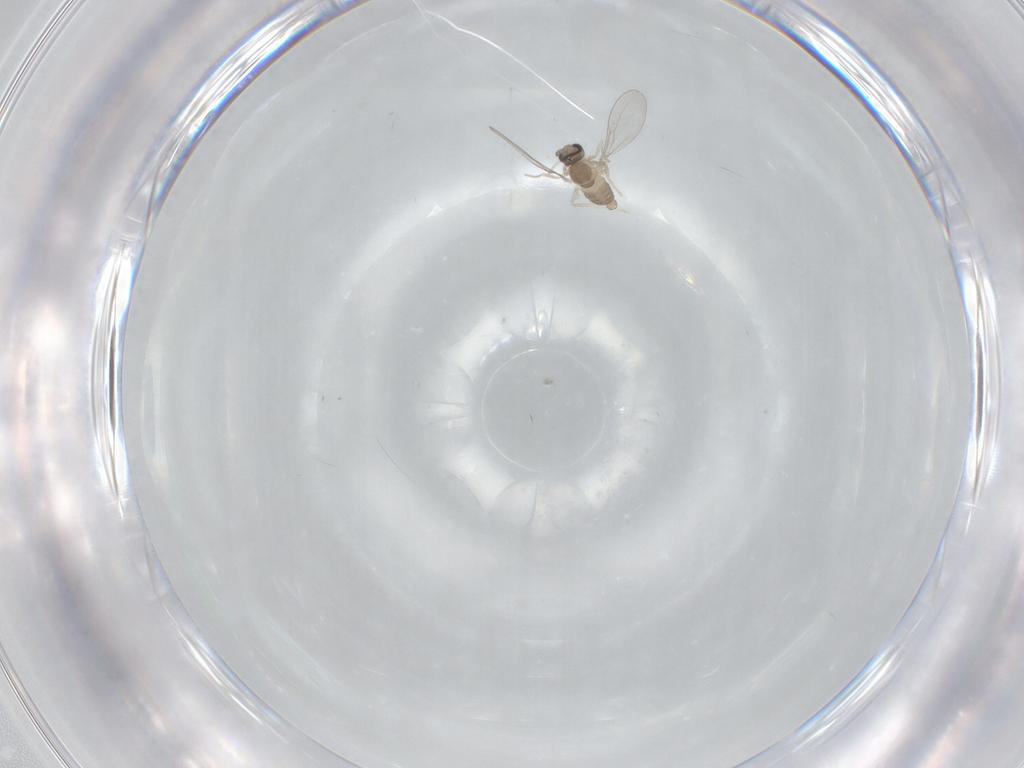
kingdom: Animalia
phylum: Arthropoda
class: Insecta
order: Diptera
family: Cecidomyiidae
